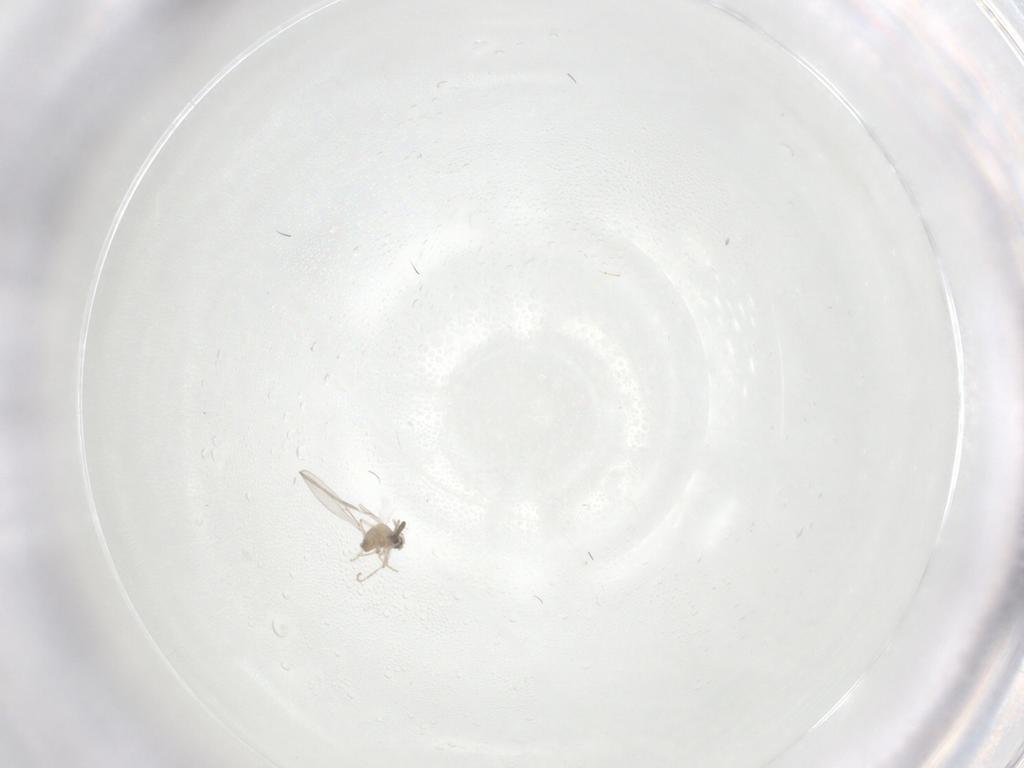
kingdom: Animalia
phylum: Arthropoda
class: Insecta
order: Diptera
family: Cecidomyiidae
